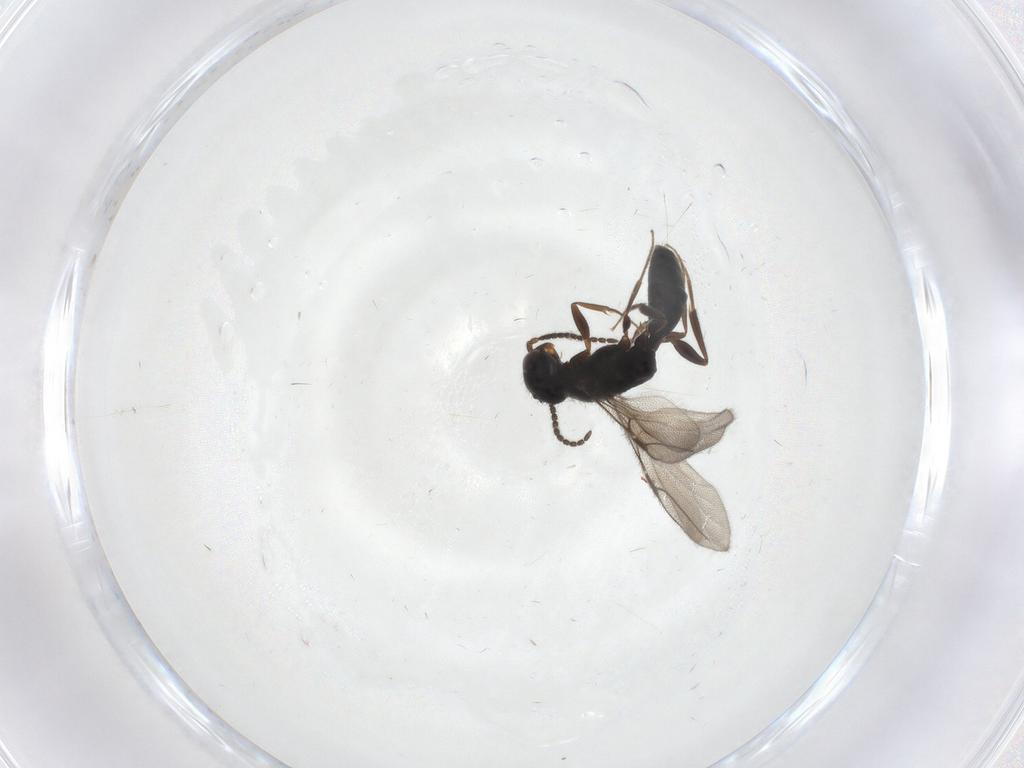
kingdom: Animalia
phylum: Arthropoda
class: Insecta
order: Hymenoptera
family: Bethylidae
